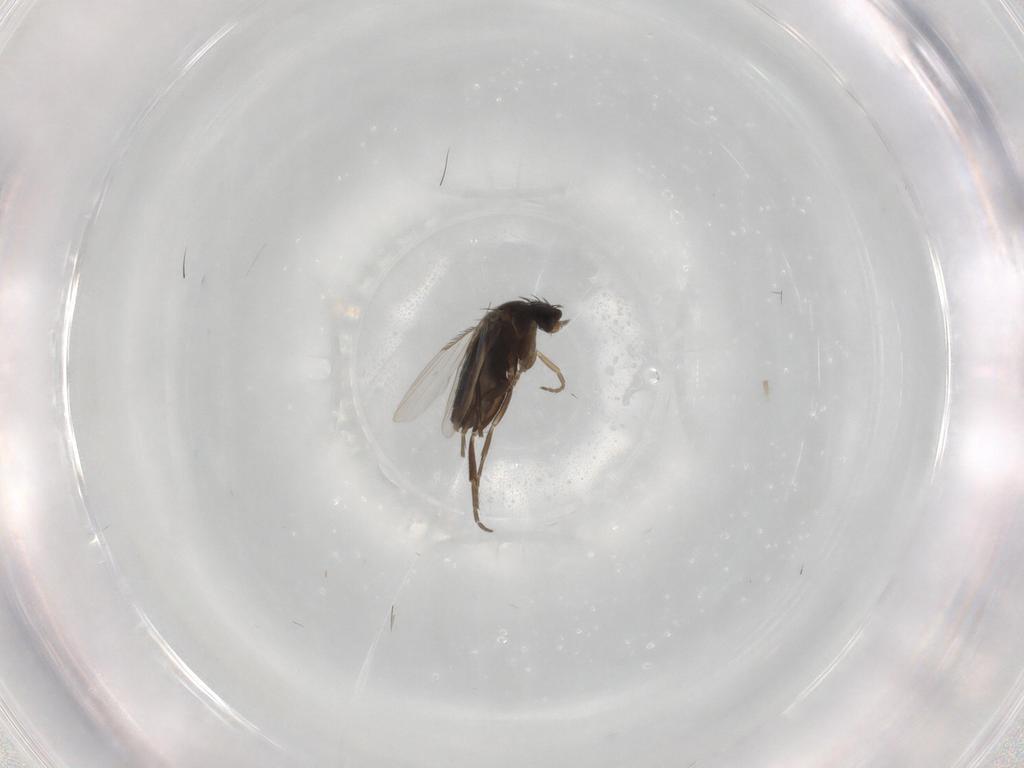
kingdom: Animalia
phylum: Arthropoda
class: Insecta
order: Diptera
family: Phoridae
